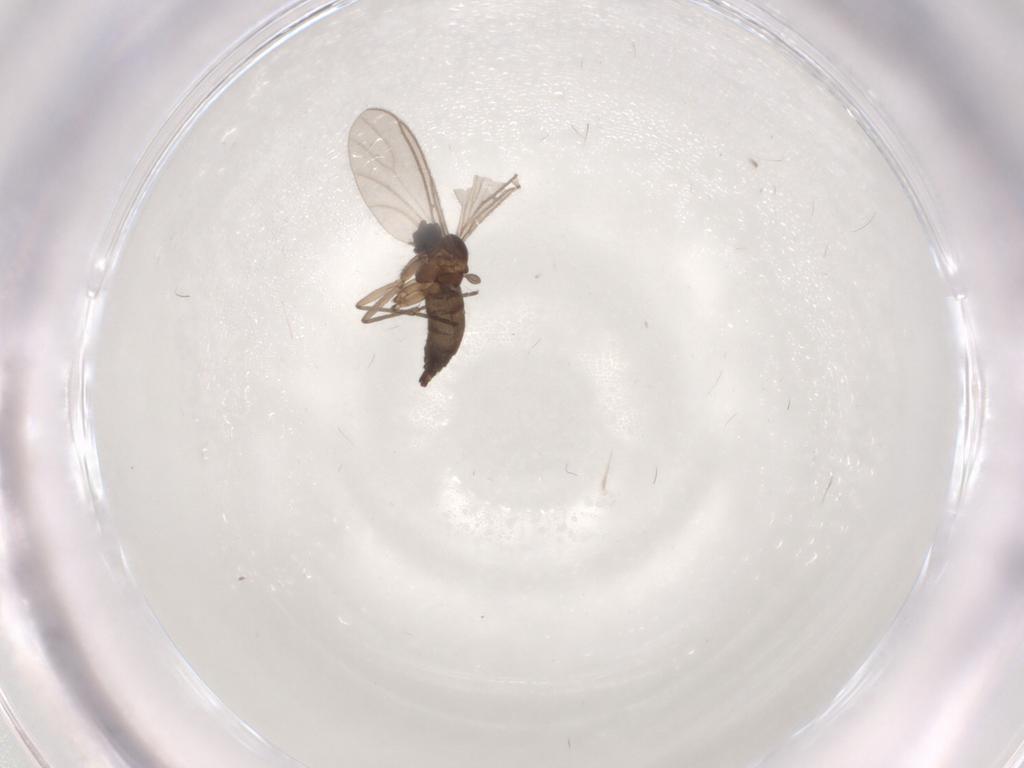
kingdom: Animalia
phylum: Arthropoda
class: Insecta
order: Diptera
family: Sciaridae
